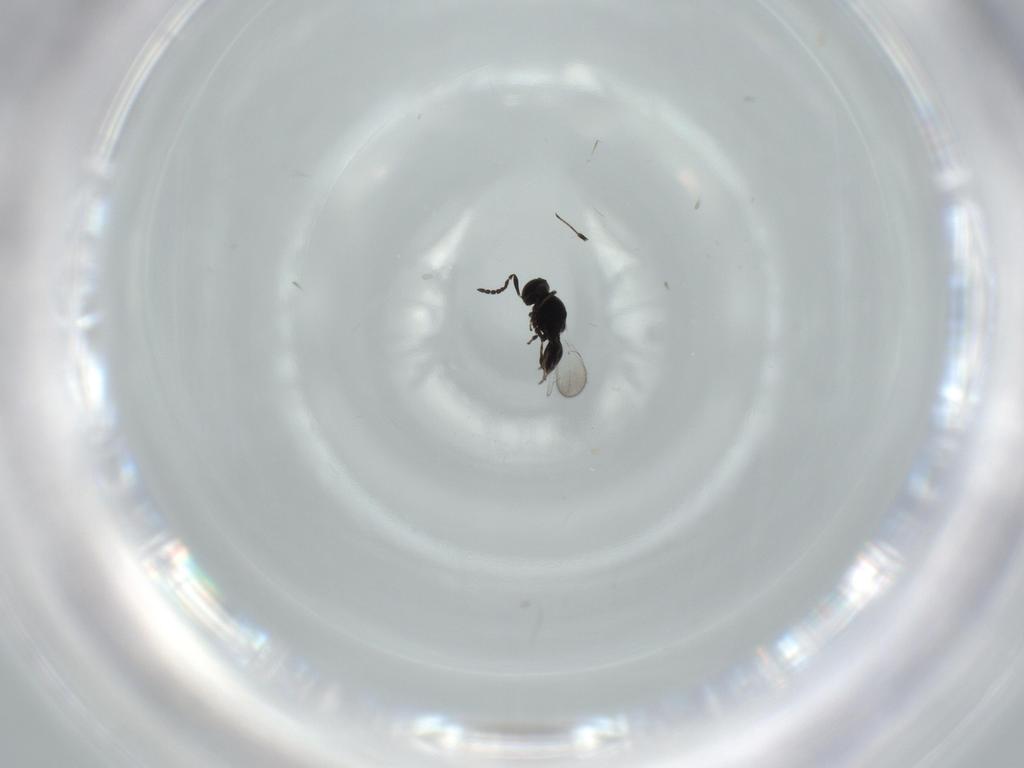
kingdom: Animalia
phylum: Arthropoda
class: Insecta
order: Hymenoptera
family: Platygastridae
